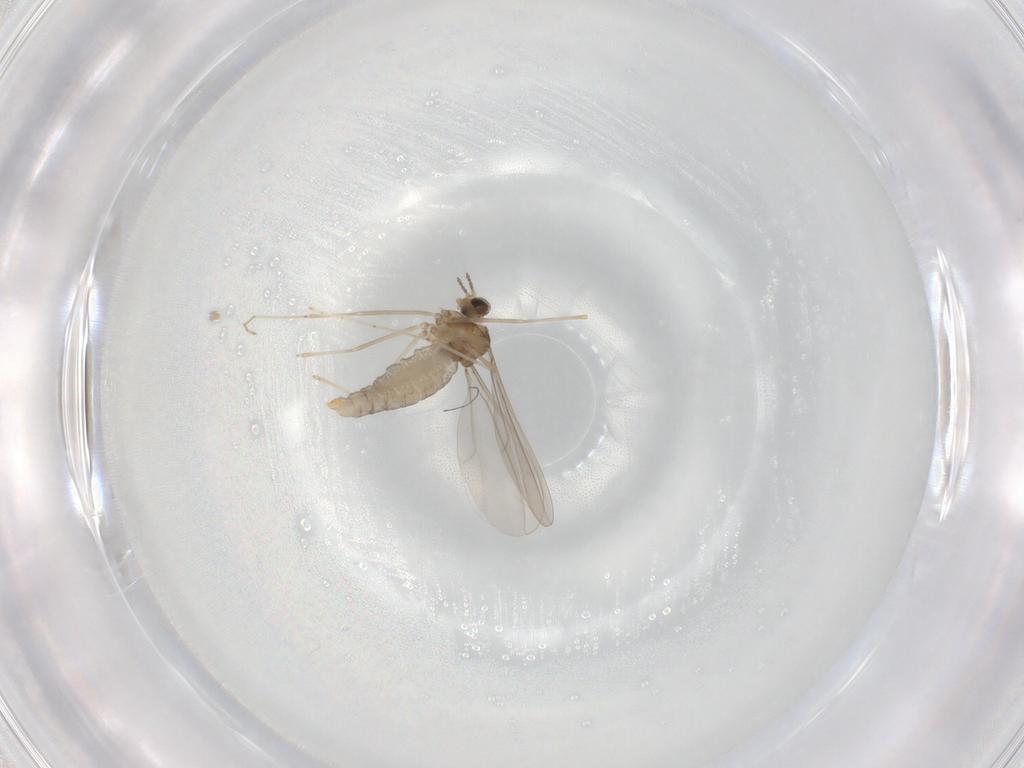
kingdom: Animalia
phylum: Arthropoda
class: Insecta
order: Diptera
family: Cecidomyiidae
